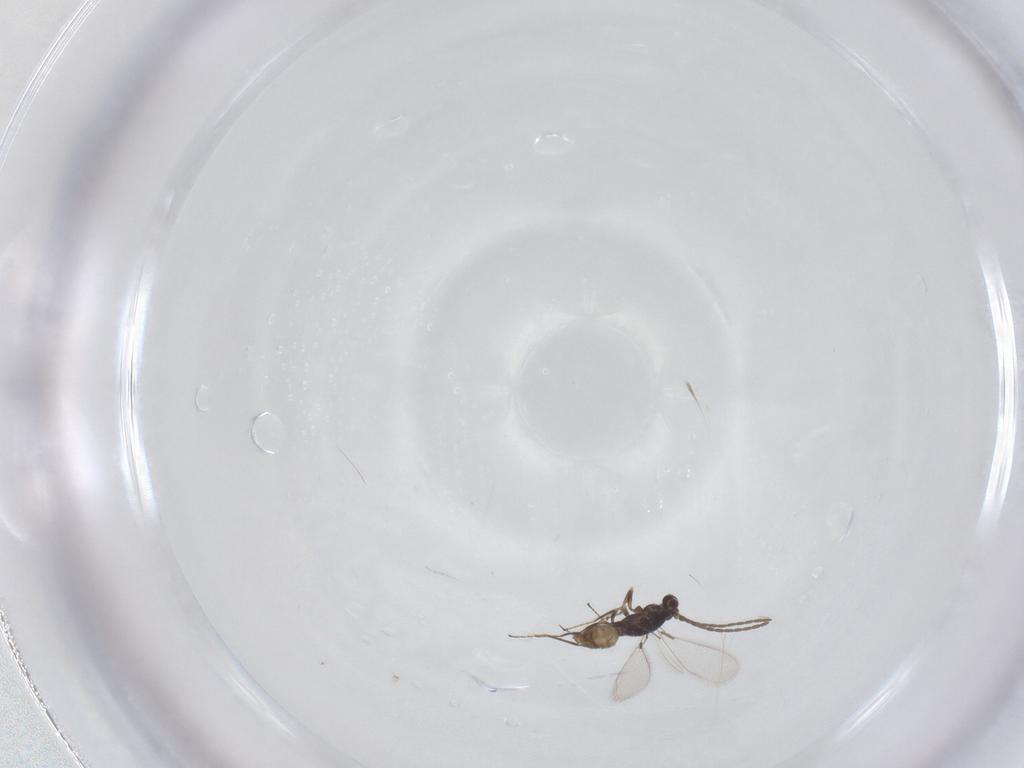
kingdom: Animalia
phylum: Arthropoda
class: Insecta
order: Hymenoptera
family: Mymaridae
